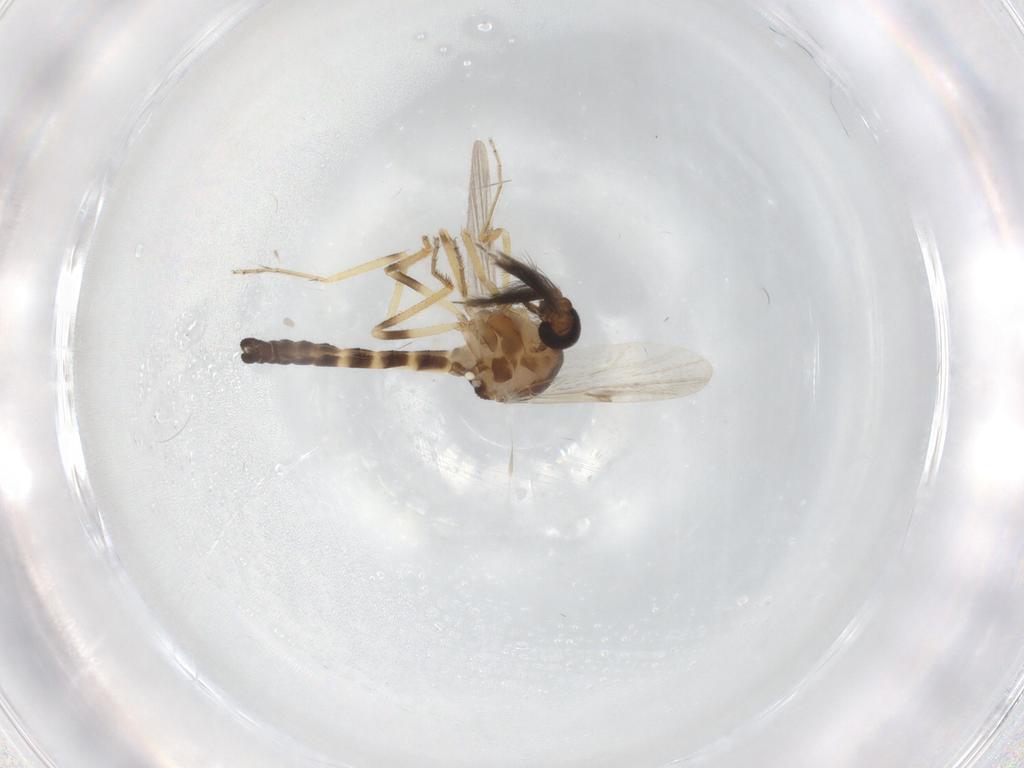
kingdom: Animalia
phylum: Arthropoda
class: Insecta
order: Diptera
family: Ceratopogonidae
